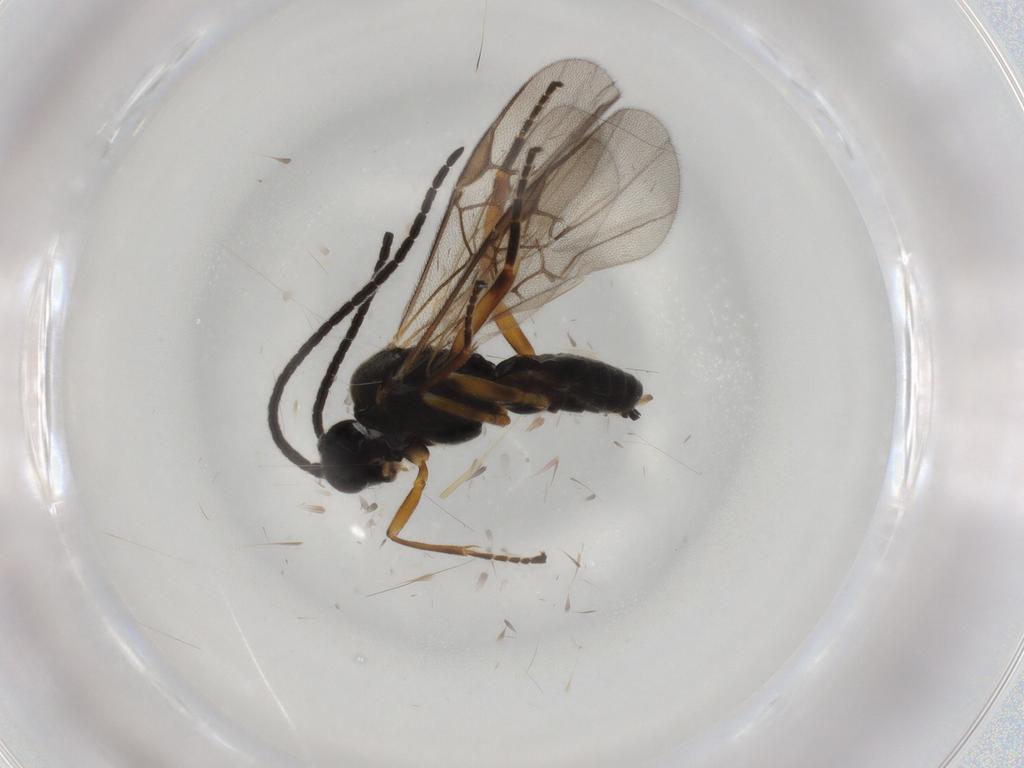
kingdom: Animalia
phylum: Arthropoda
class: Insecta
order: Hymenoptera
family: Braconidae
